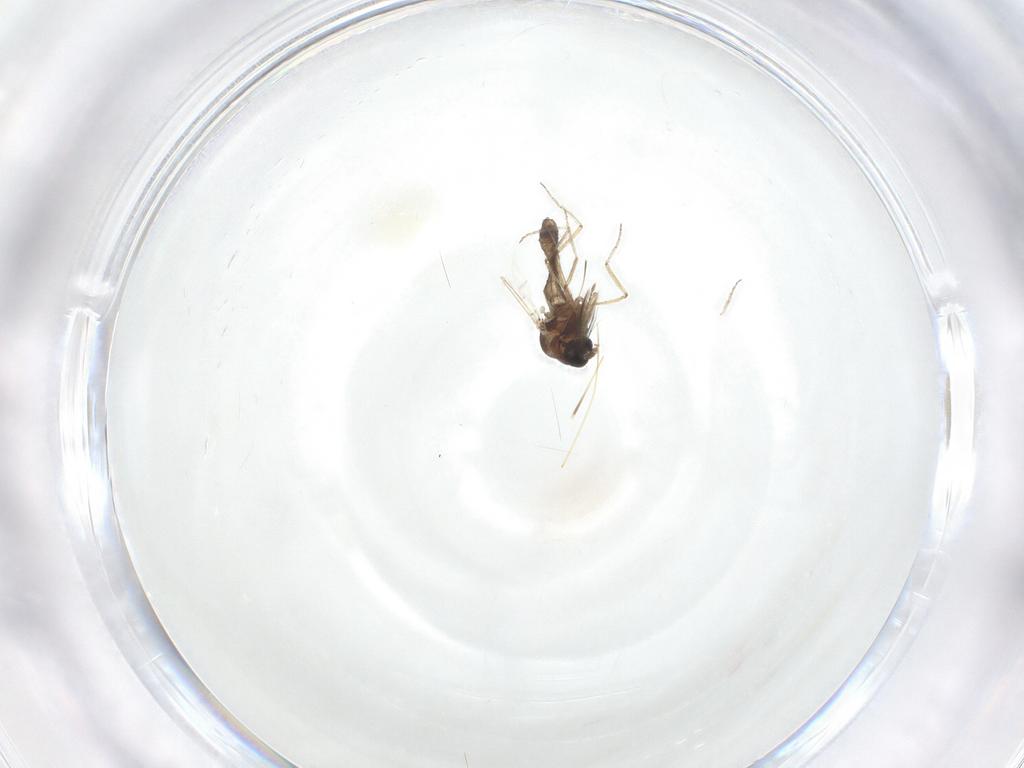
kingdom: Animalia
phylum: Arthropoda
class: Insecta
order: Diptera
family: Ceratopogonidae
